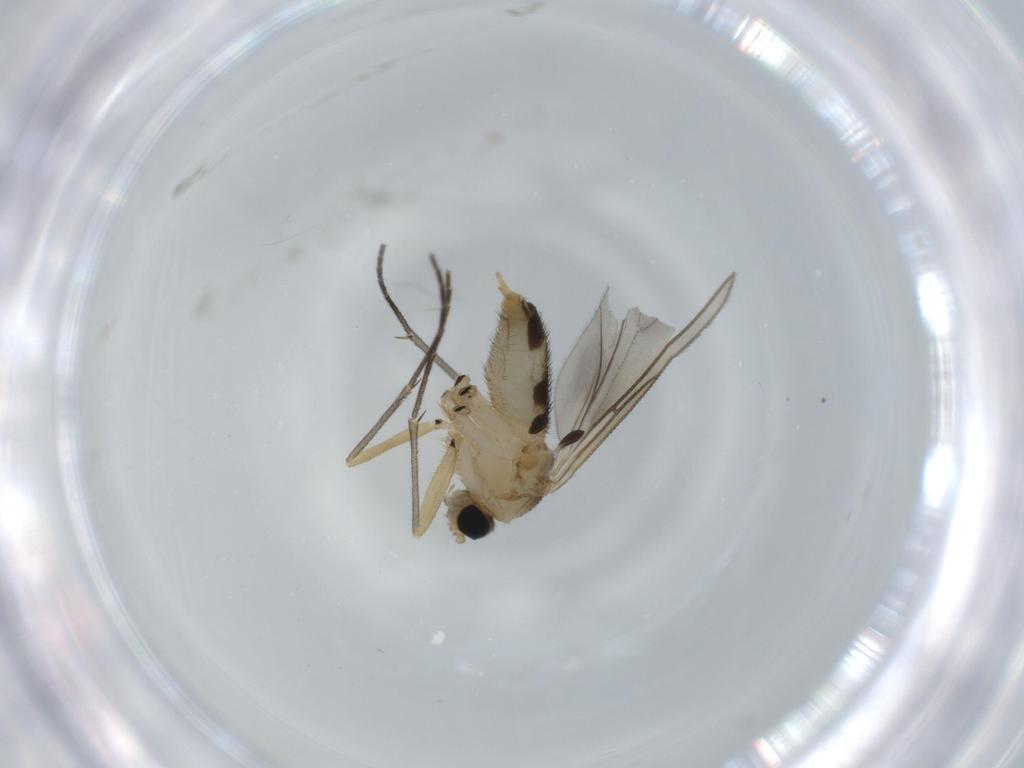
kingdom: Animalia
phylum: Arthropoda
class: Insecta
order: Diptera
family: Sciaridae
